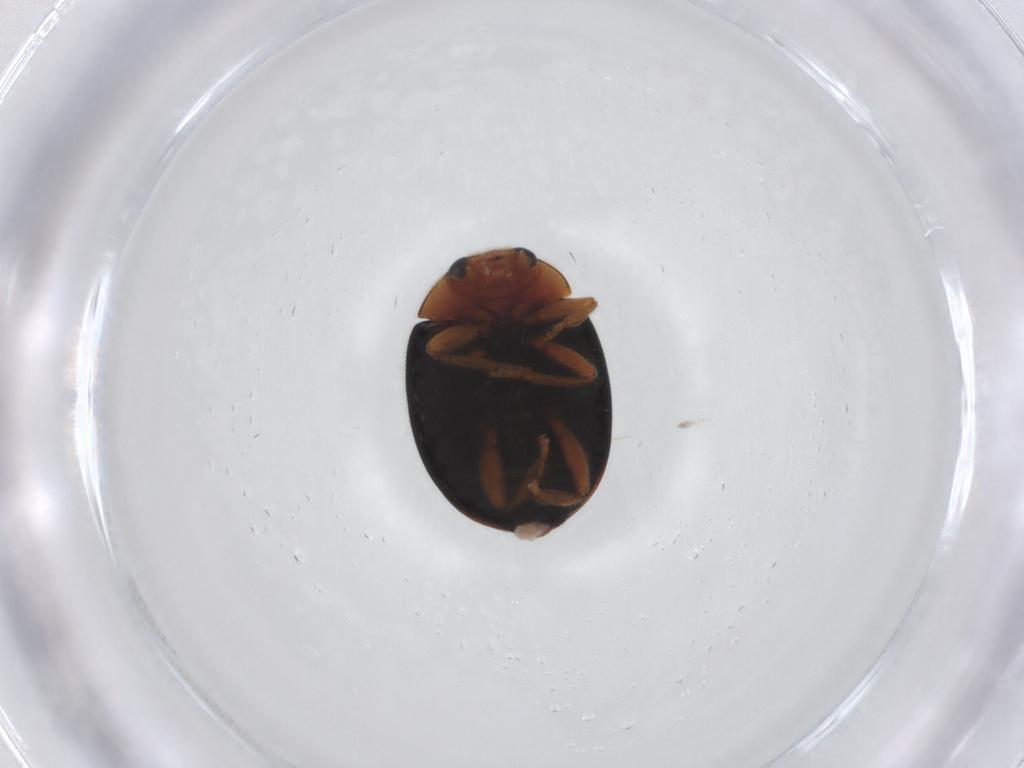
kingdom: Animalia
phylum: Arthropoda
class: Insecta
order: Coleoptera
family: Coccinellidae
